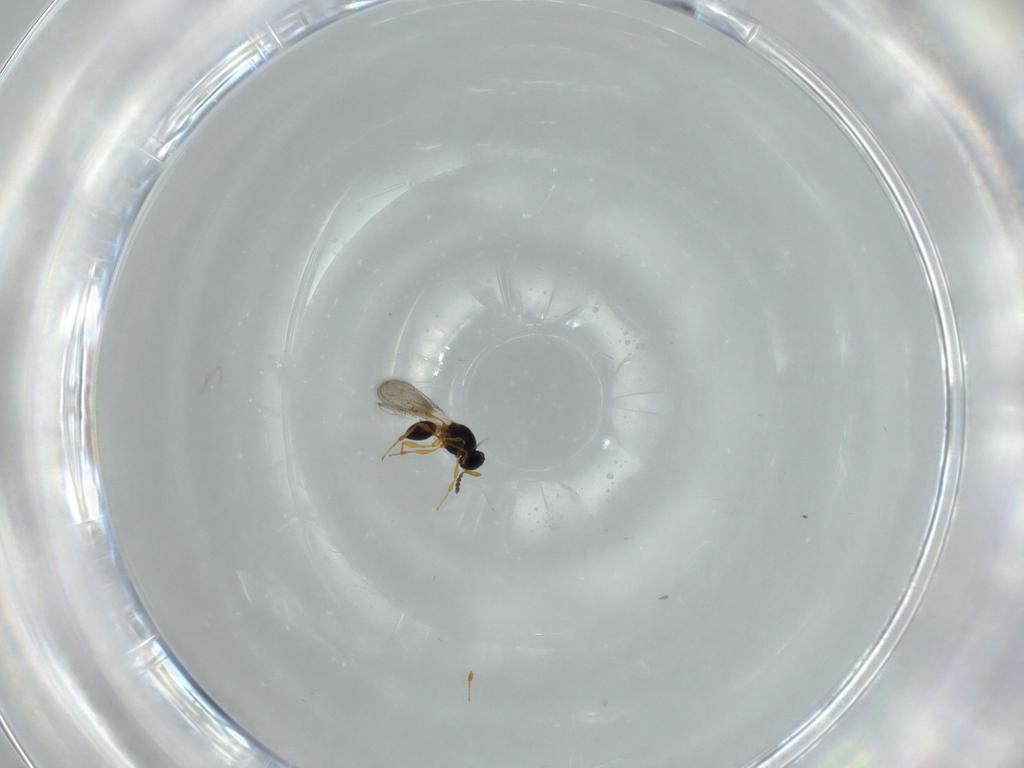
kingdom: Animalia
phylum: Arthropoda
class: Insecta
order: Hymenoptera
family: Platygastridae
